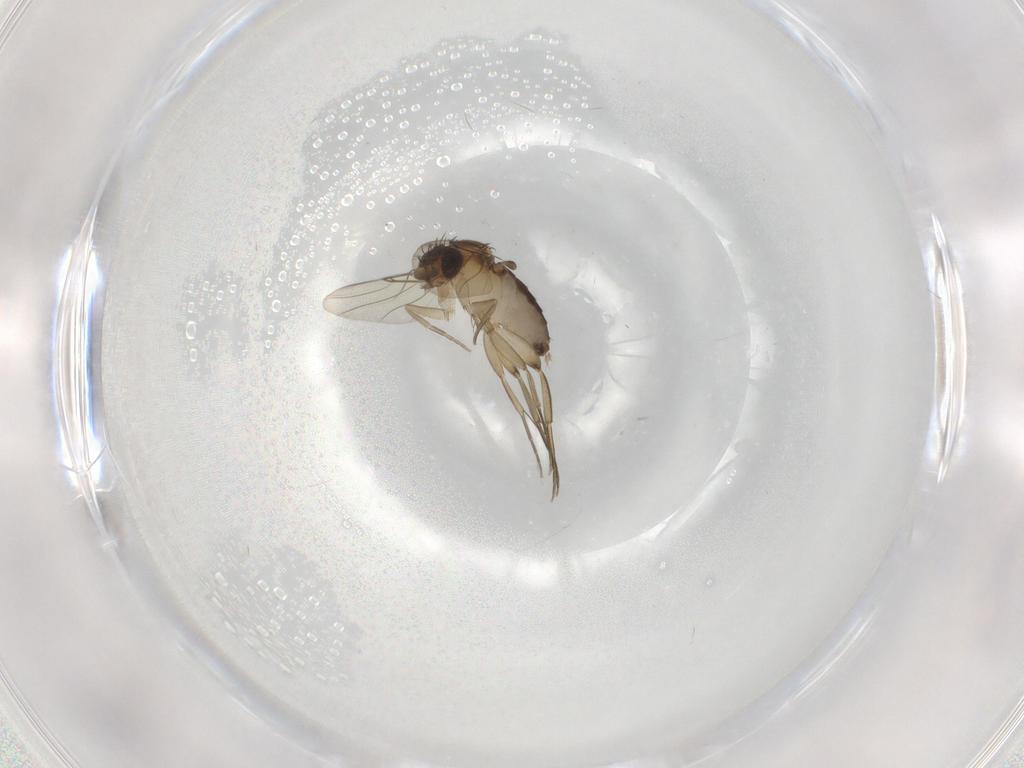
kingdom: Animalia
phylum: Arthropoda
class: Insecta
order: Diptera
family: Phoridae
